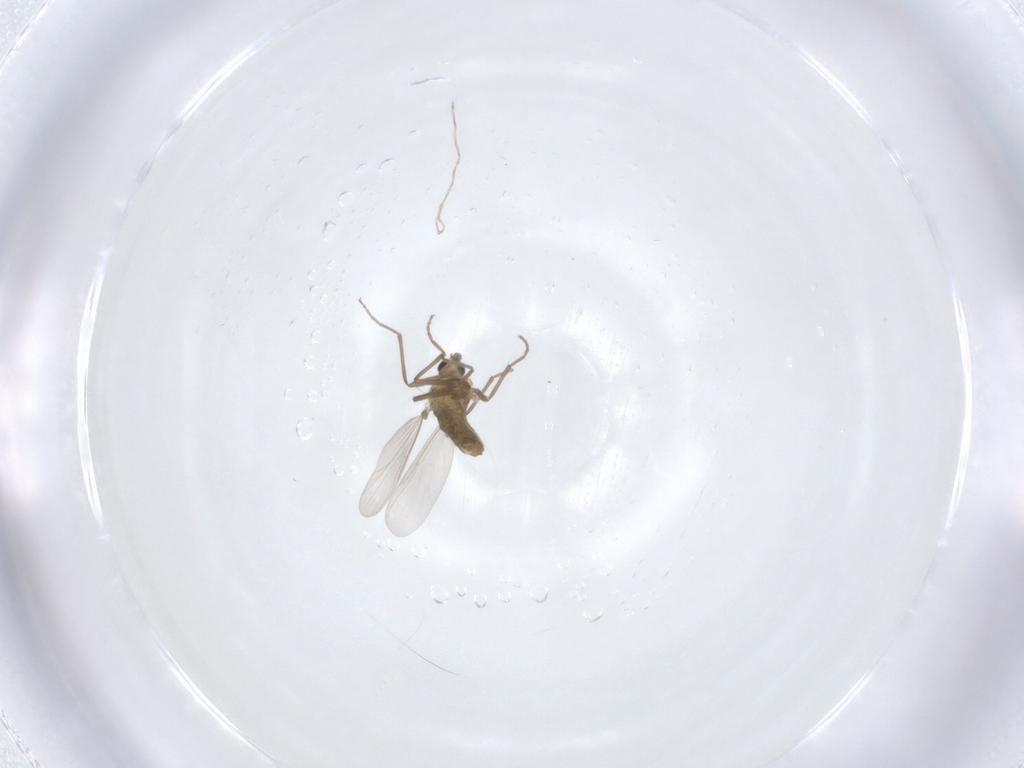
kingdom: Animalia
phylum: Arthropoda
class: Insecta
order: Diptera
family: Chironomidae
